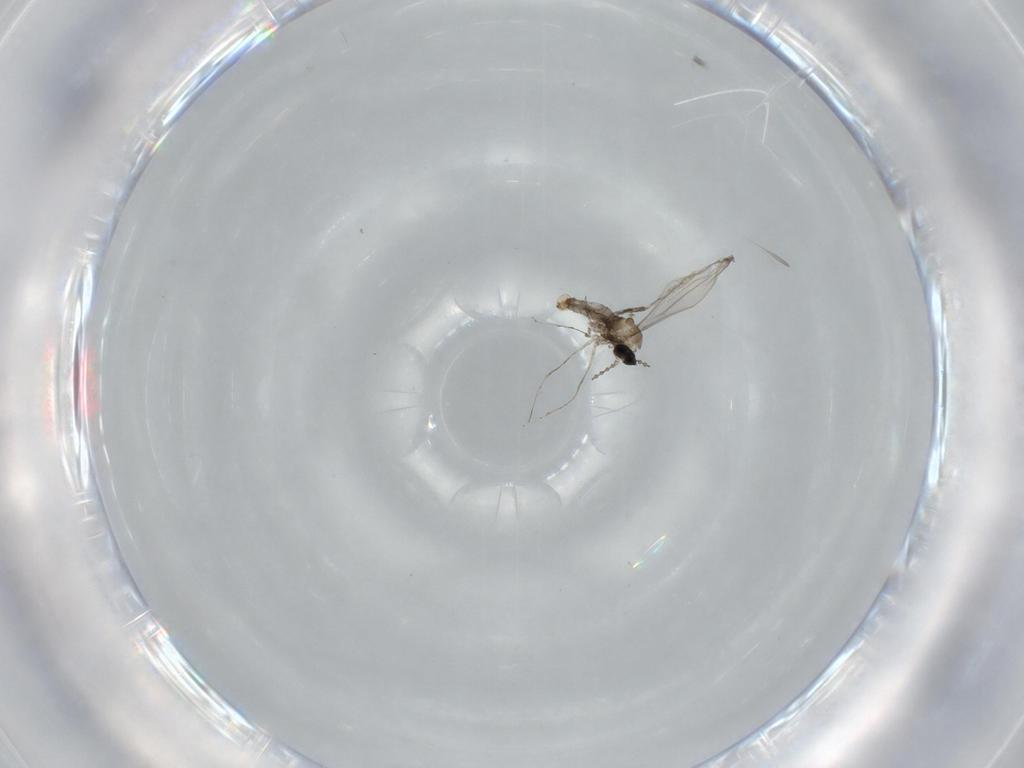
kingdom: Animalia
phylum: Arthropoda
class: Insecta
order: Diptera
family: Cecidomyiidae
